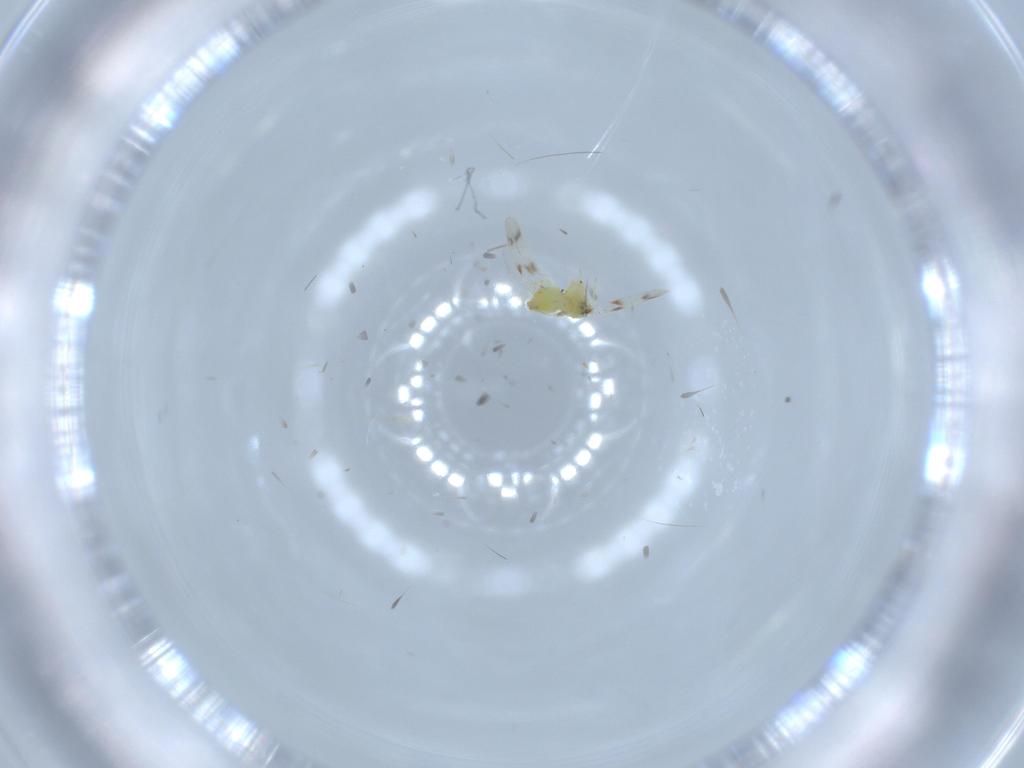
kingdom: Animalia
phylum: Arthropoda
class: Insecta
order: Hemiptera
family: Aleyrodidae
